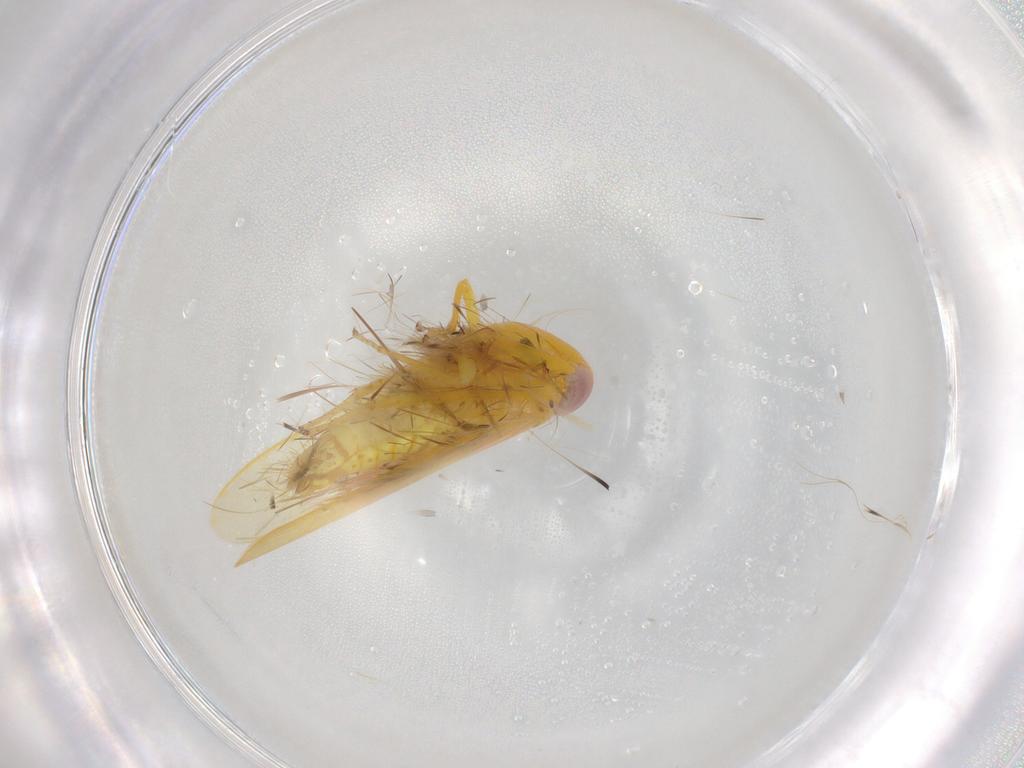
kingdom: Animalia
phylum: Arthropoda
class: Insecta
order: Hemiptera
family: Cicadellidae
